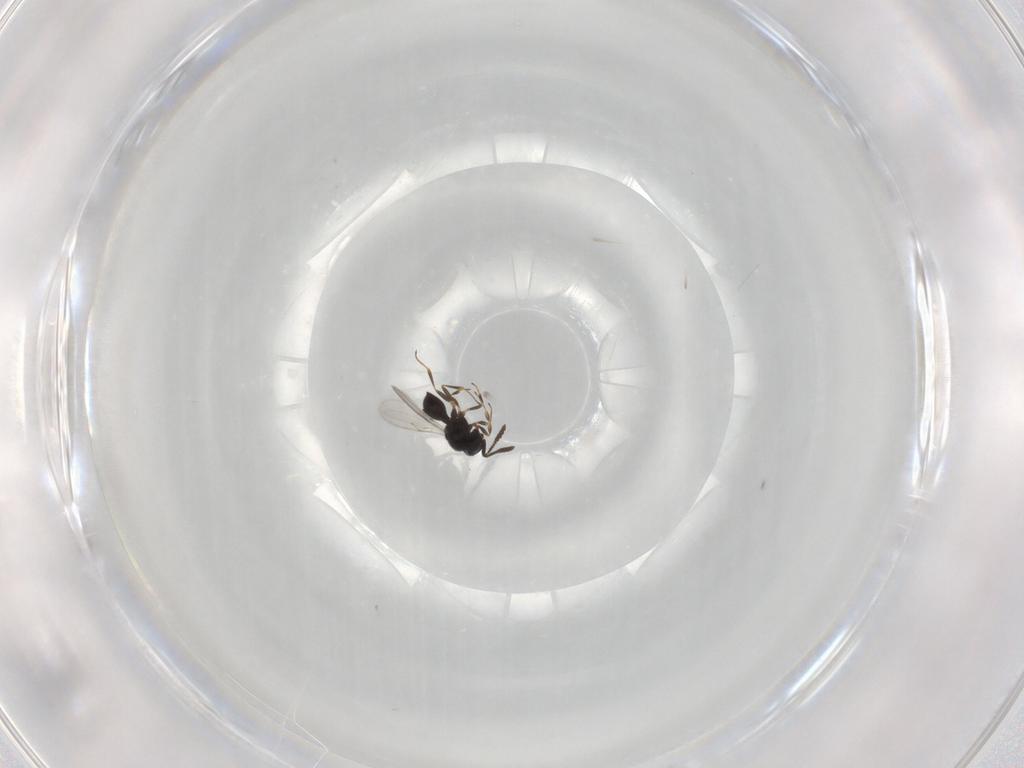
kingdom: Animalia
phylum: Arthropoda
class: Insecta
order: Hymenoptera
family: Scelionidae
